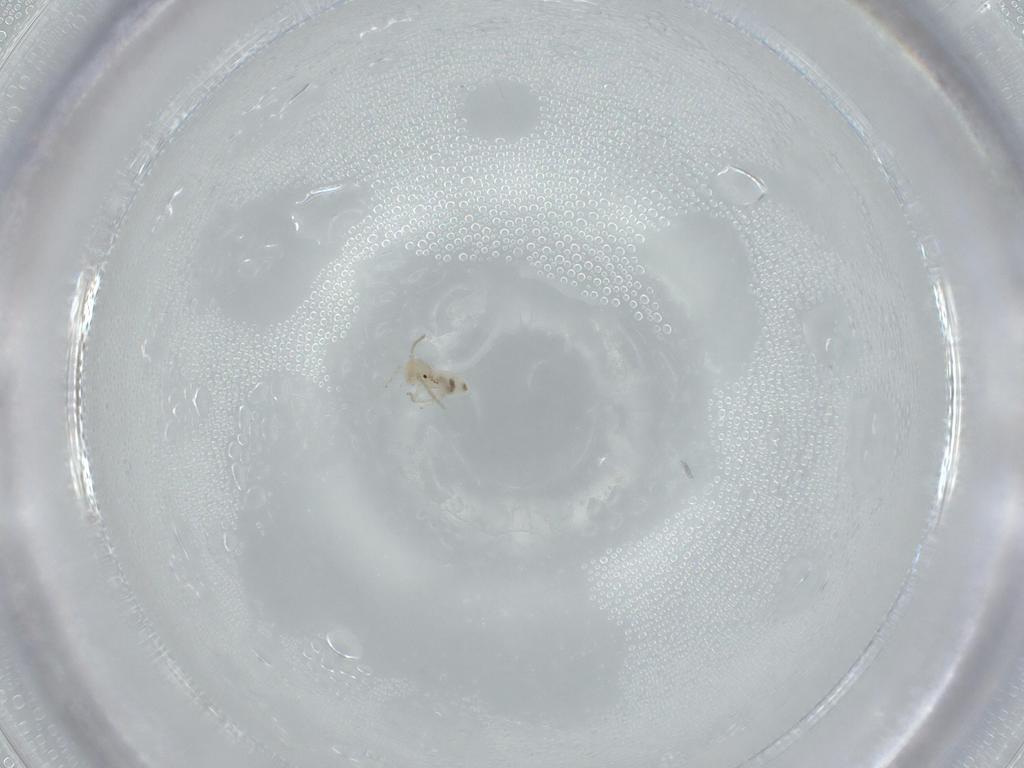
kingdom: Animalia
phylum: Arthropoda
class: Insecta
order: Psocodea
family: Caeciliusidae
